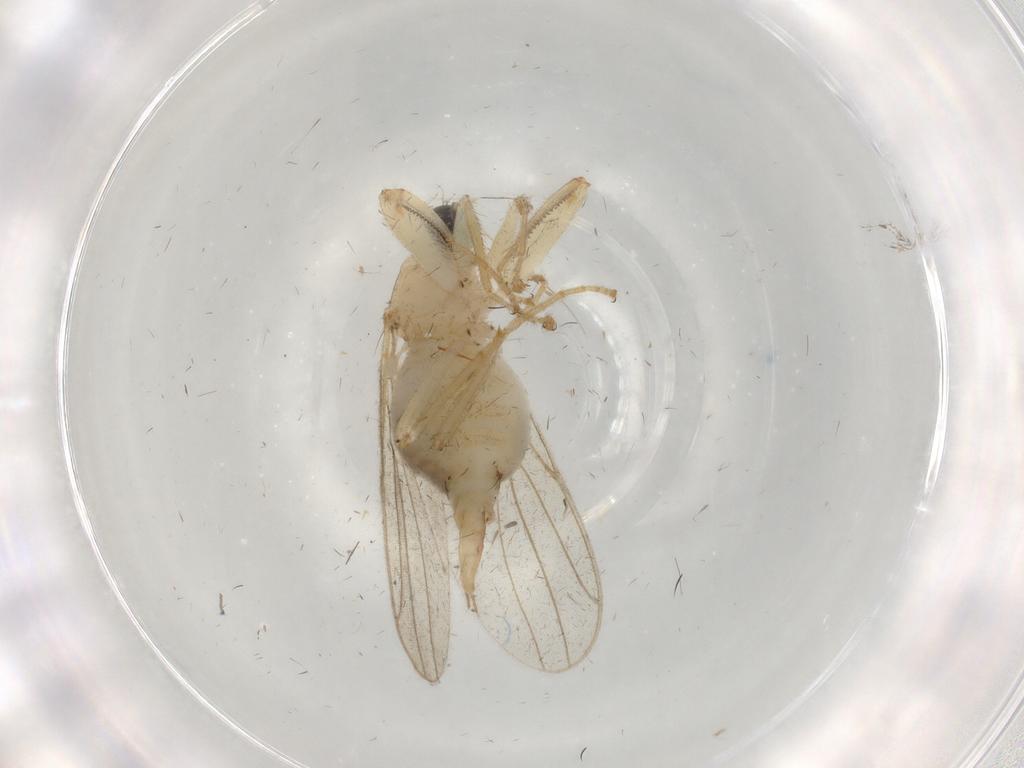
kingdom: Animalia
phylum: Arthropoda
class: Insecta
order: Diptera
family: Hybotidae
